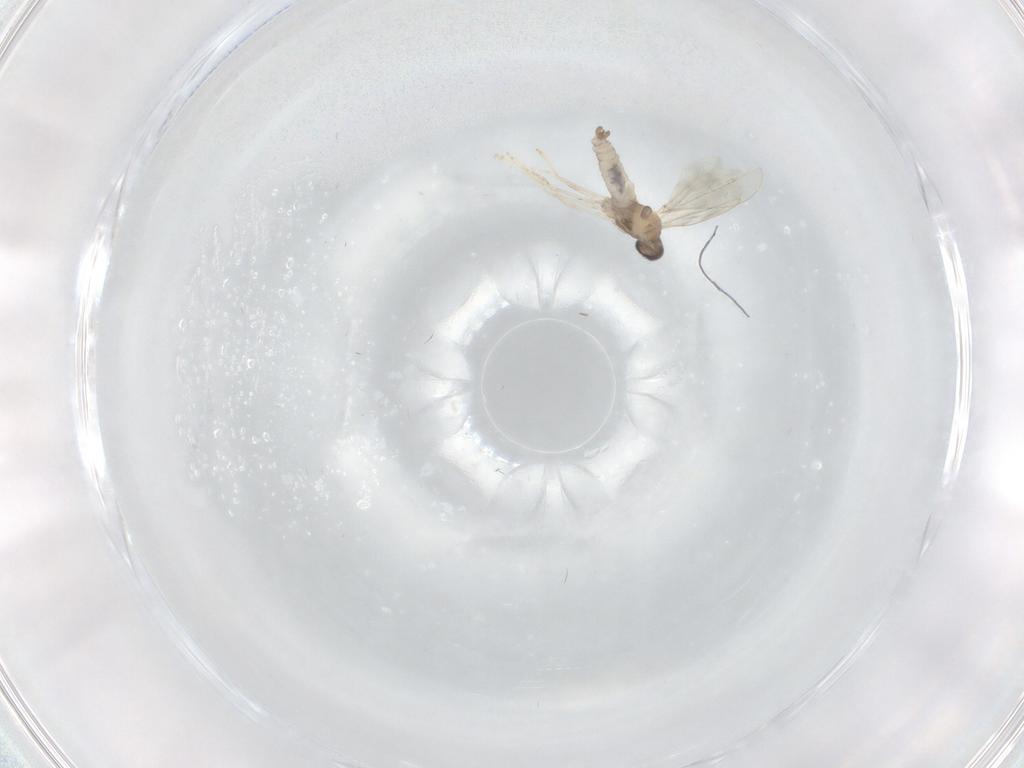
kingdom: Animalia
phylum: Arthropoda
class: Insecta
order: Diptera
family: Cecidomyiidae
